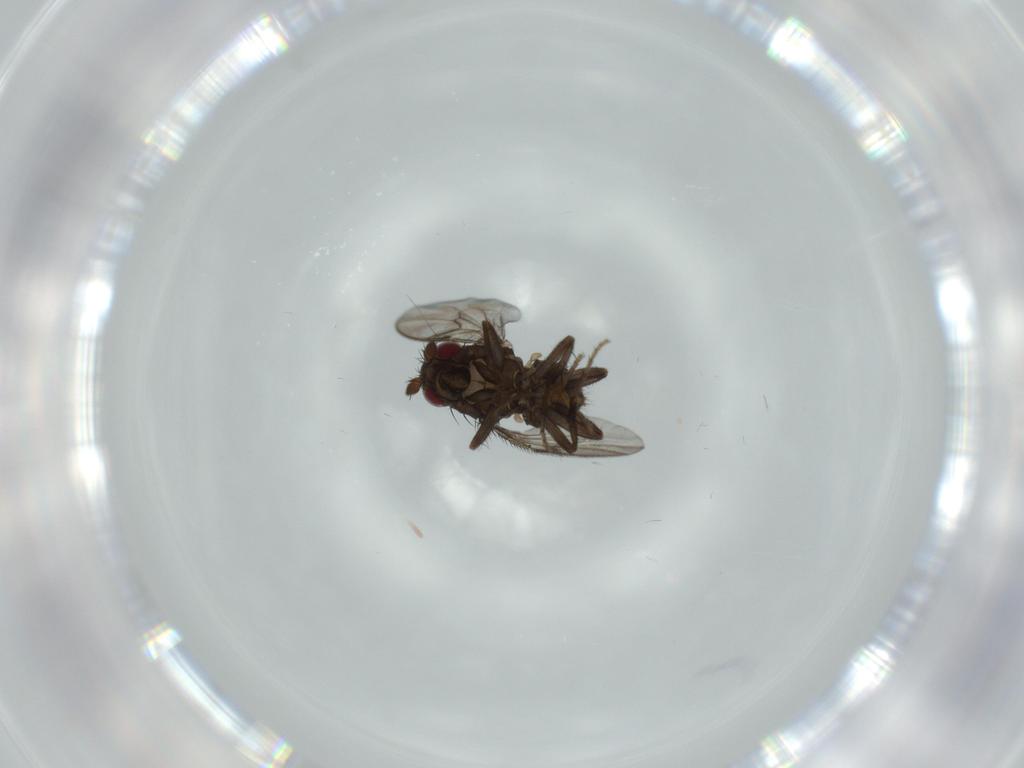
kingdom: Animalia
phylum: Arthropoda
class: Insecta
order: Diptera
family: Sphaeroceridae
